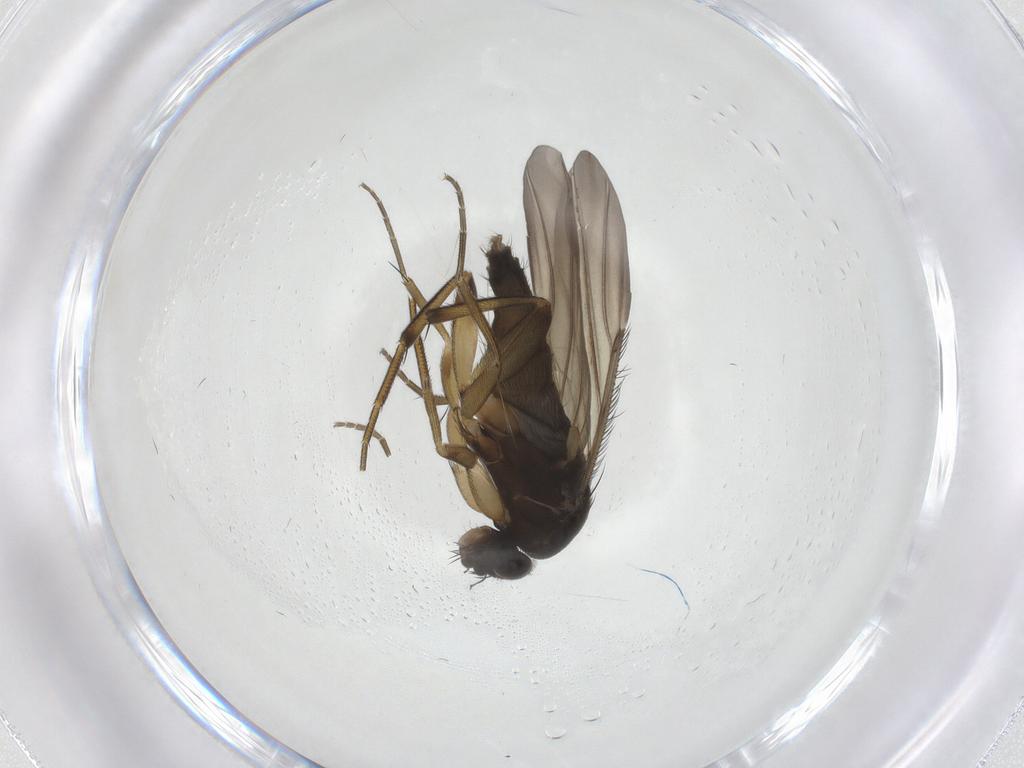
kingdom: Animalia
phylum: Arthropoda
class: Insecta
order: Diptera
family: Phoridae
